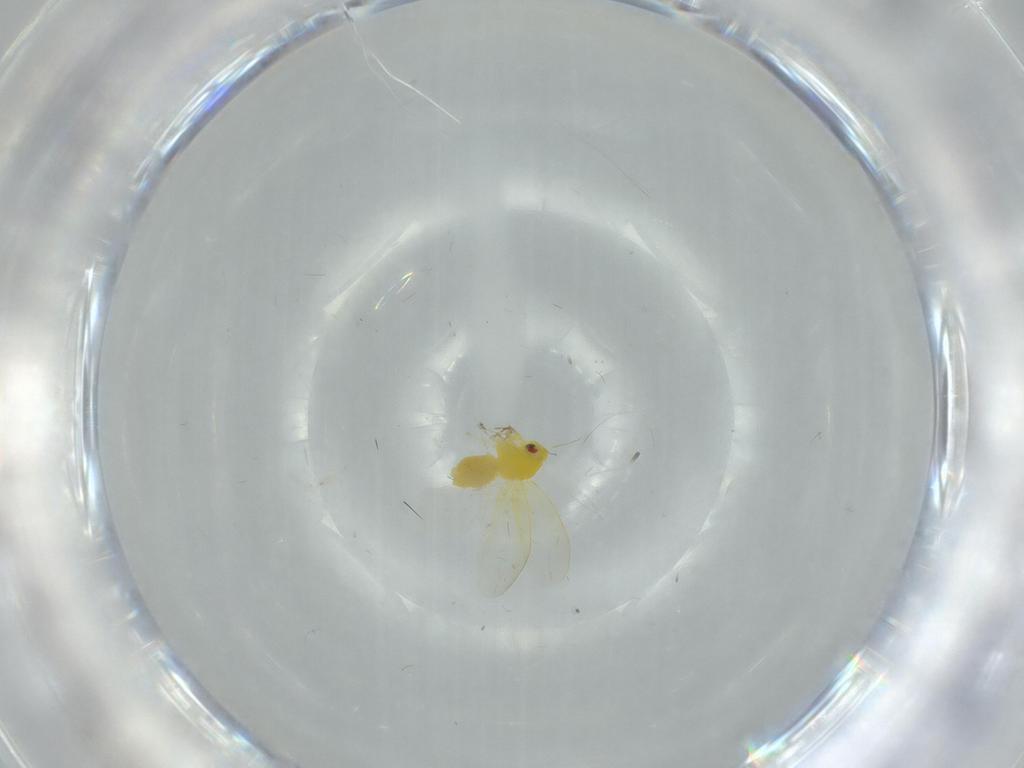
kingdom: Animalia
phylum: Arthropoda
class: Insecta
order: Hemiptera
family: Aleyrodidae
